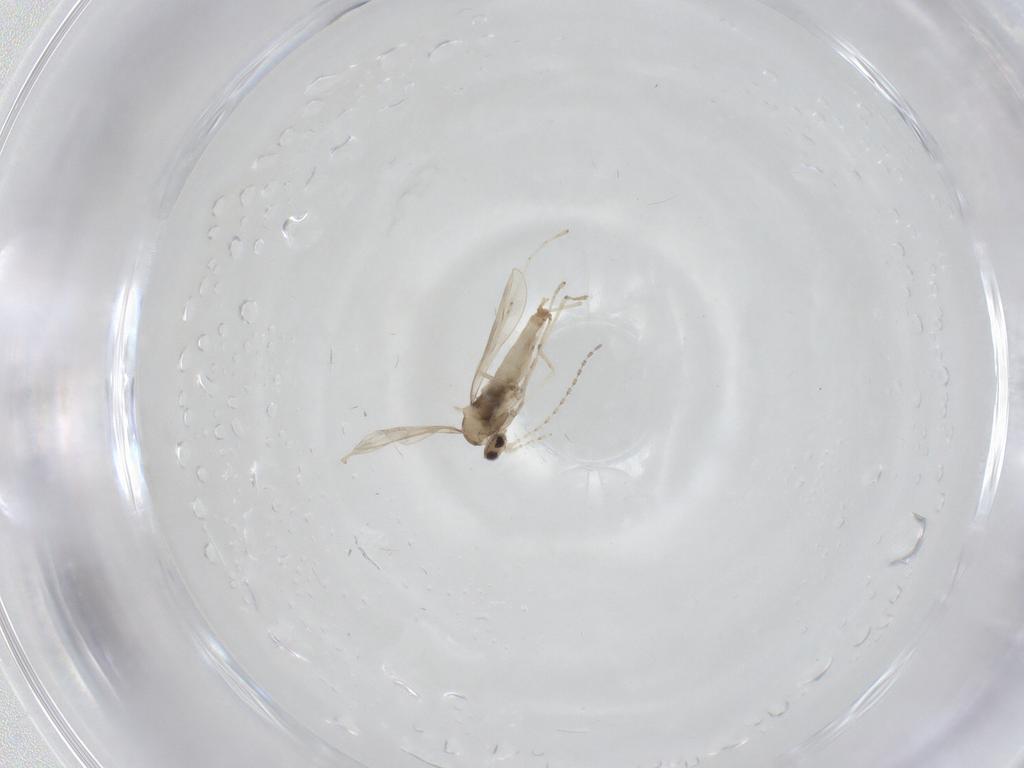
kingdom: Animalia
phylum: Arthropoda
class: Insecta
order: Diptera
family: Cecidomyiidae
